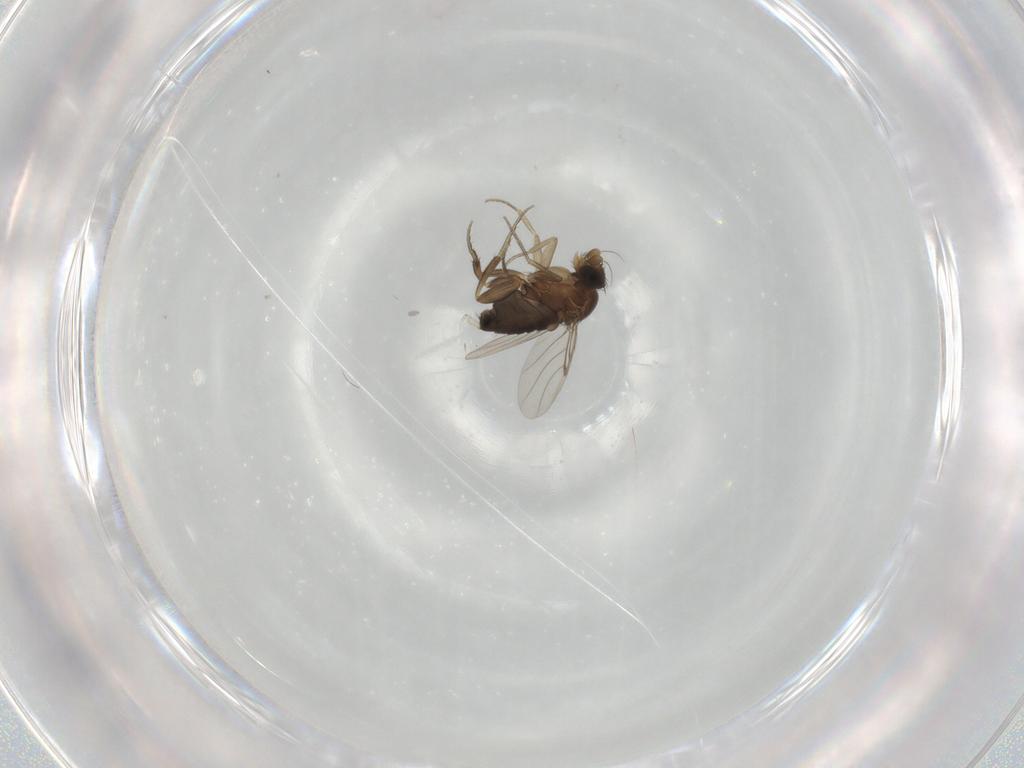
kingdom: Animalia
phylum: Arthropoda
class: Insecta
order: Diptera
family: Phoridae
